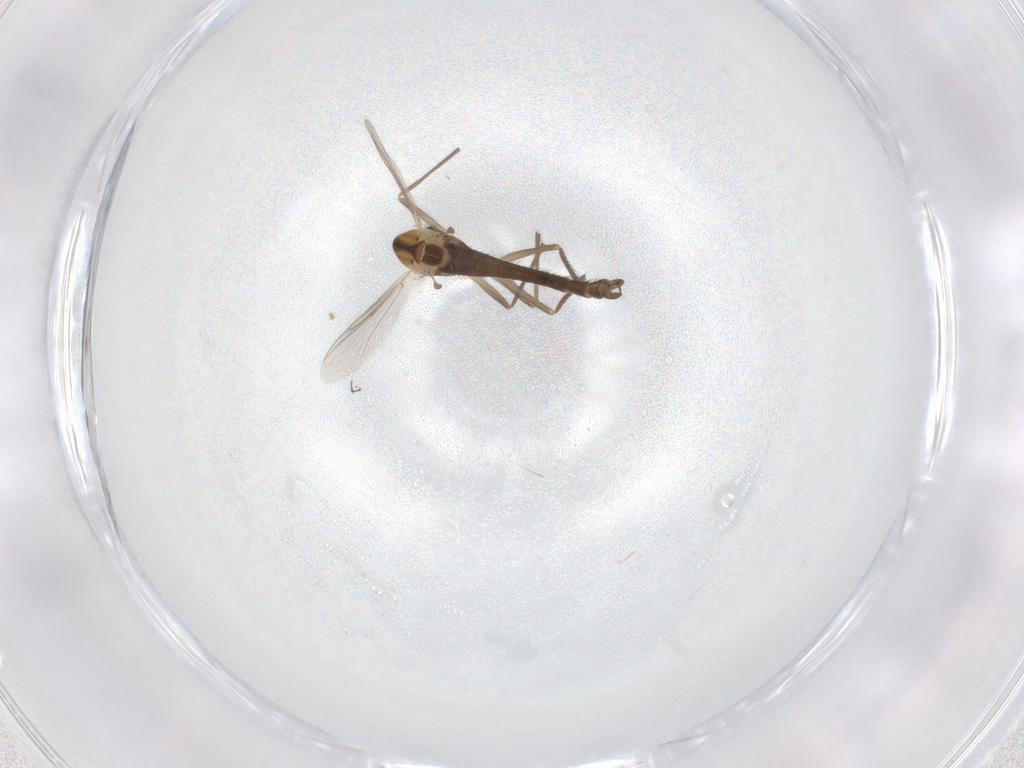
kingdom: Animalia
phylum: Arthropoda
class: Insecta
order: Diptera
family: Chironomidae
